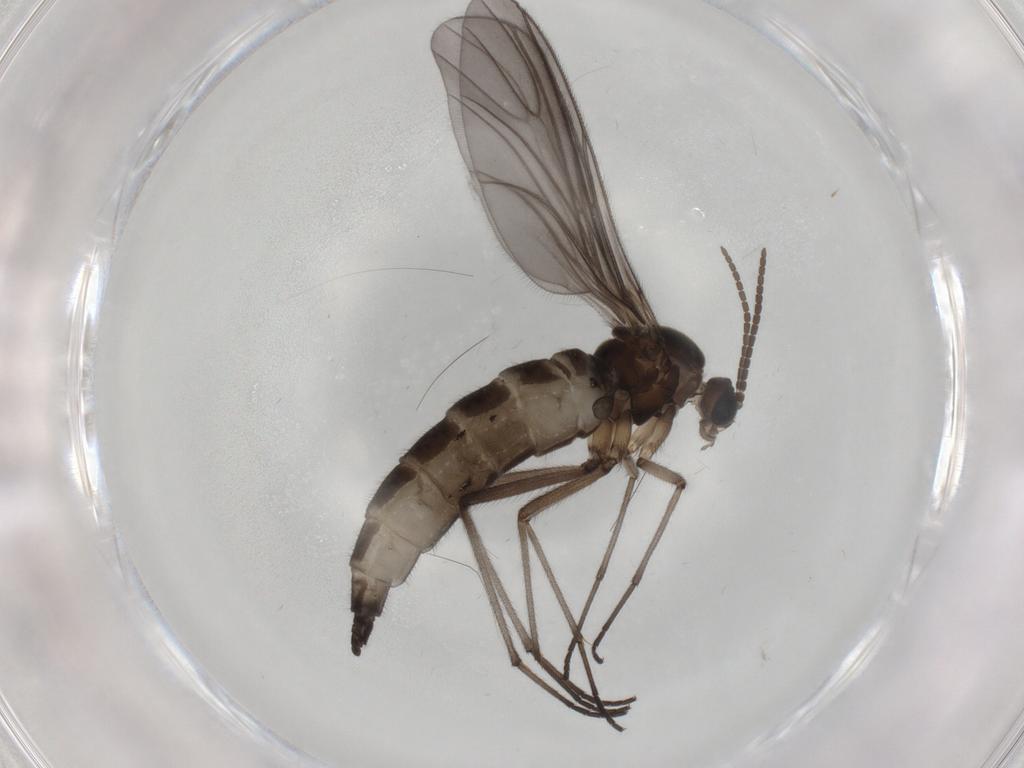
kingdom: Animalia
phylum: Arthropoda
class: Insecta
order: Diptera
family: Sciaridae
